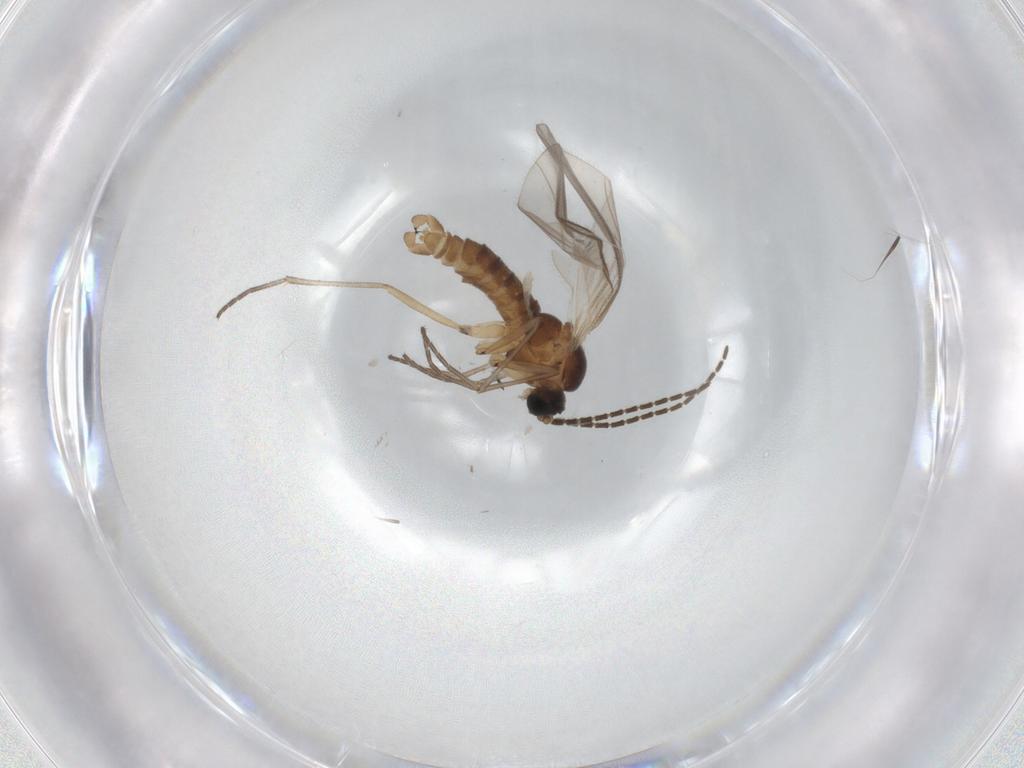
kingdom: Animalia
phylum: Arthropoda
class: Insecta
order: Diptera
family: Sciaridae
